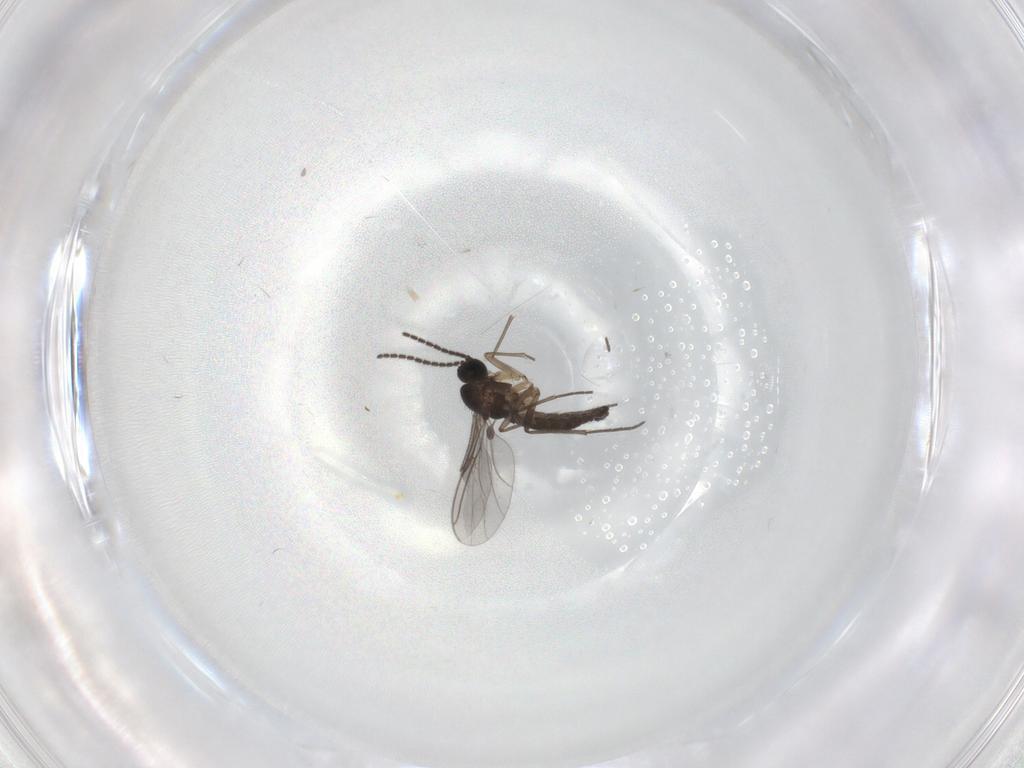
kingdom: Animalia
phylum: Arthropoda
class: Insecta
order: Diptera
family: Sciaridae
